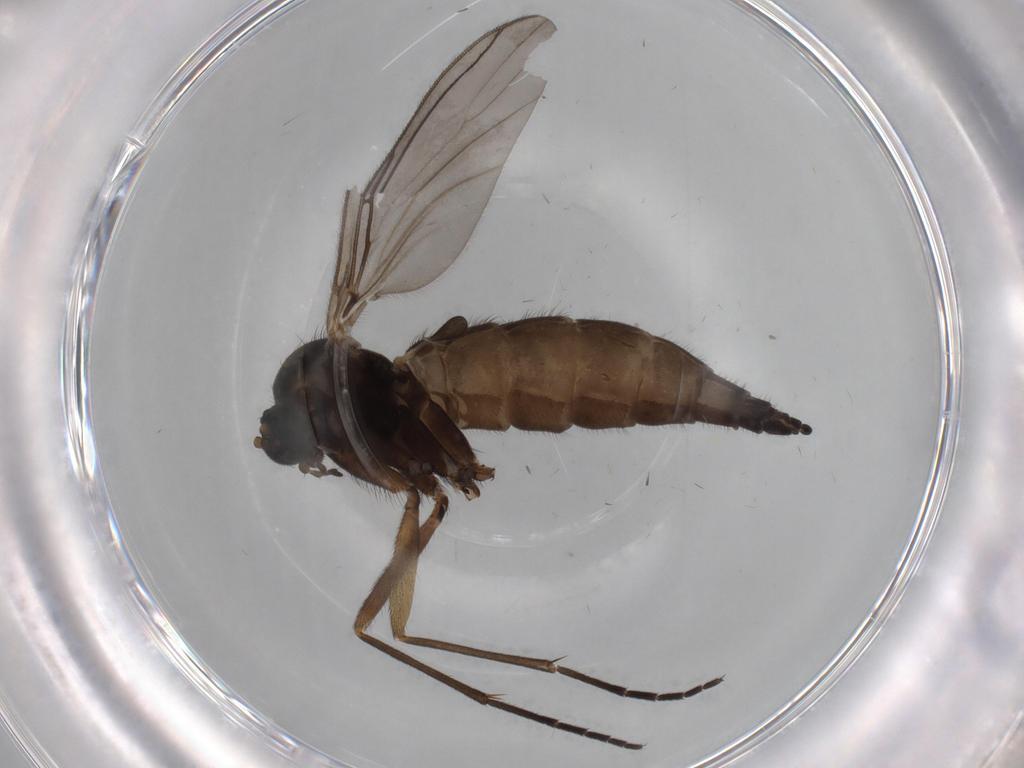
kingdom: Animalia
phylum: Arthropoda
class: Insecta
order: Diptera
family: Sciaridae
